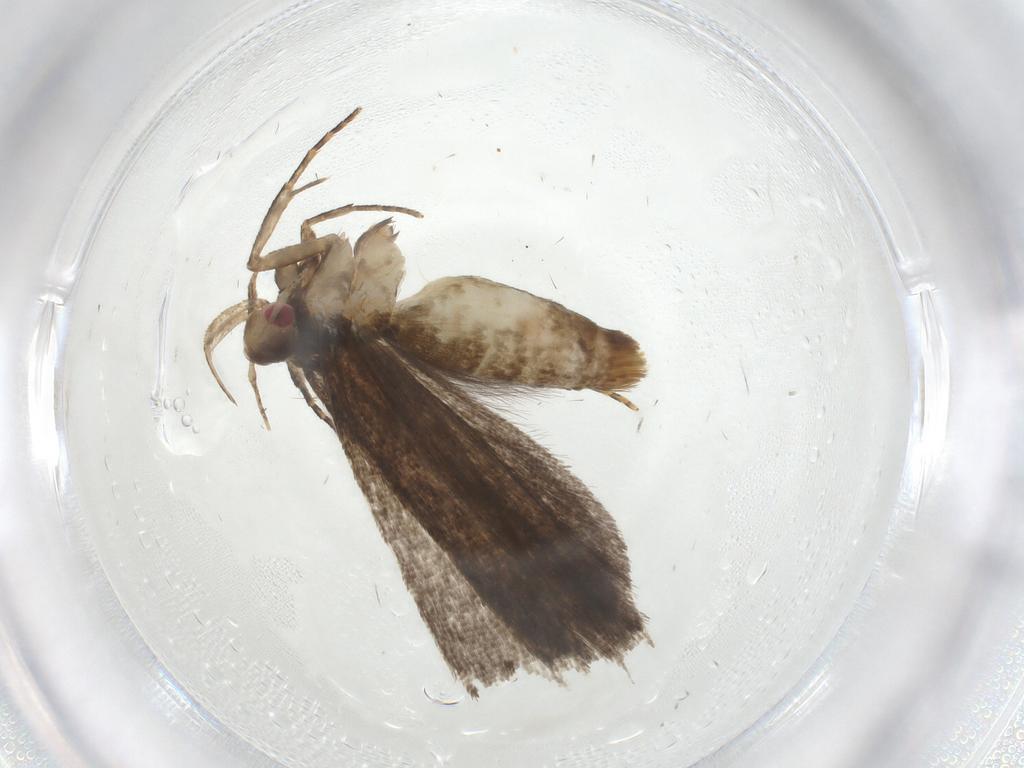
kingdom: Animalia
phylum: Arthropoda
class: Insecta
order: Lepidoptera
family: Gelechiidae
